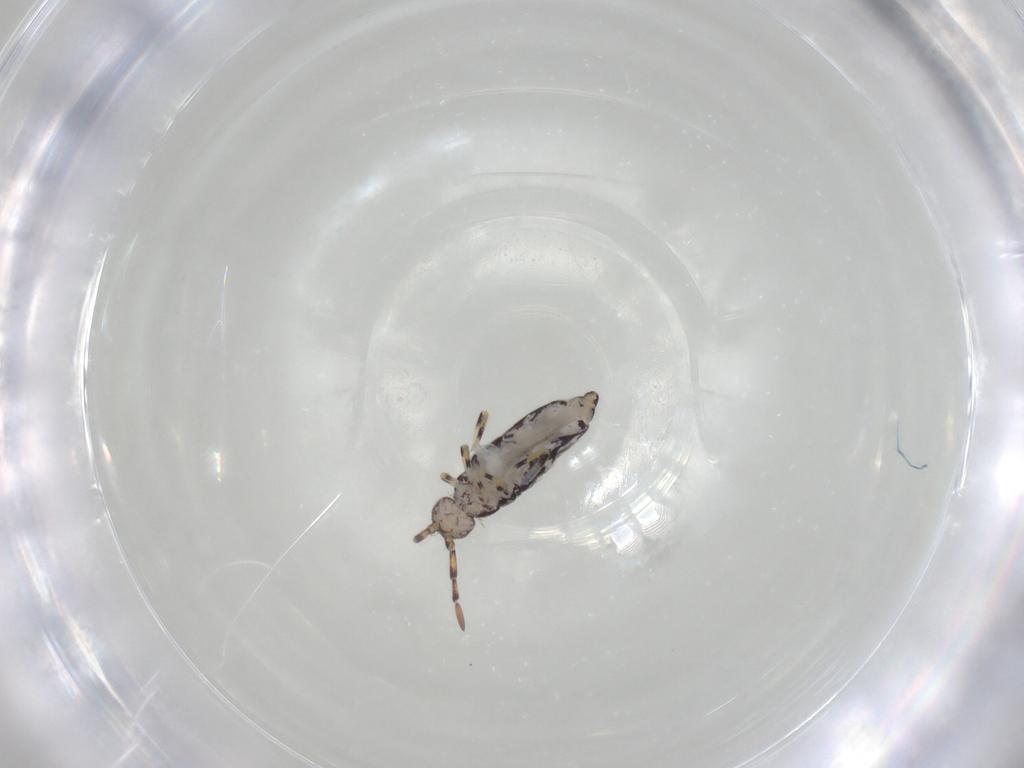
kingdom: Animalia
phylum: Arthropoda
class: Collembola
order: Entomobryomorpha
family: Entomobryidae
